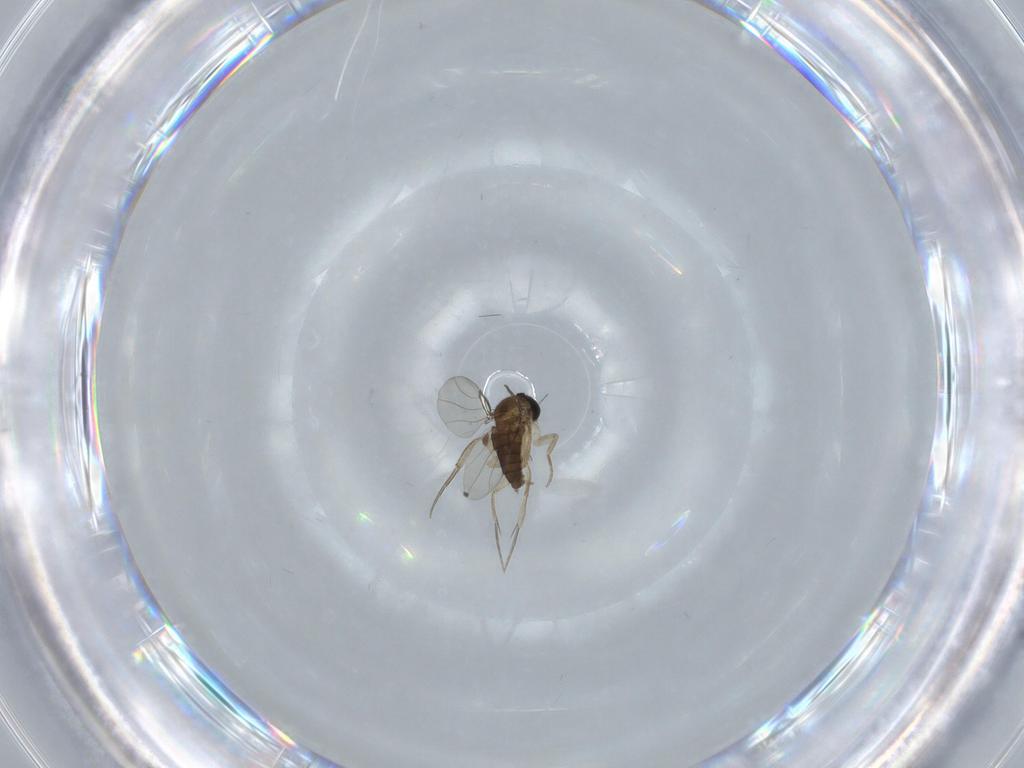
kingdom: Animalia
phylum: Arthropoda
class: Insecta
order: Diptera
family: Phoridae
